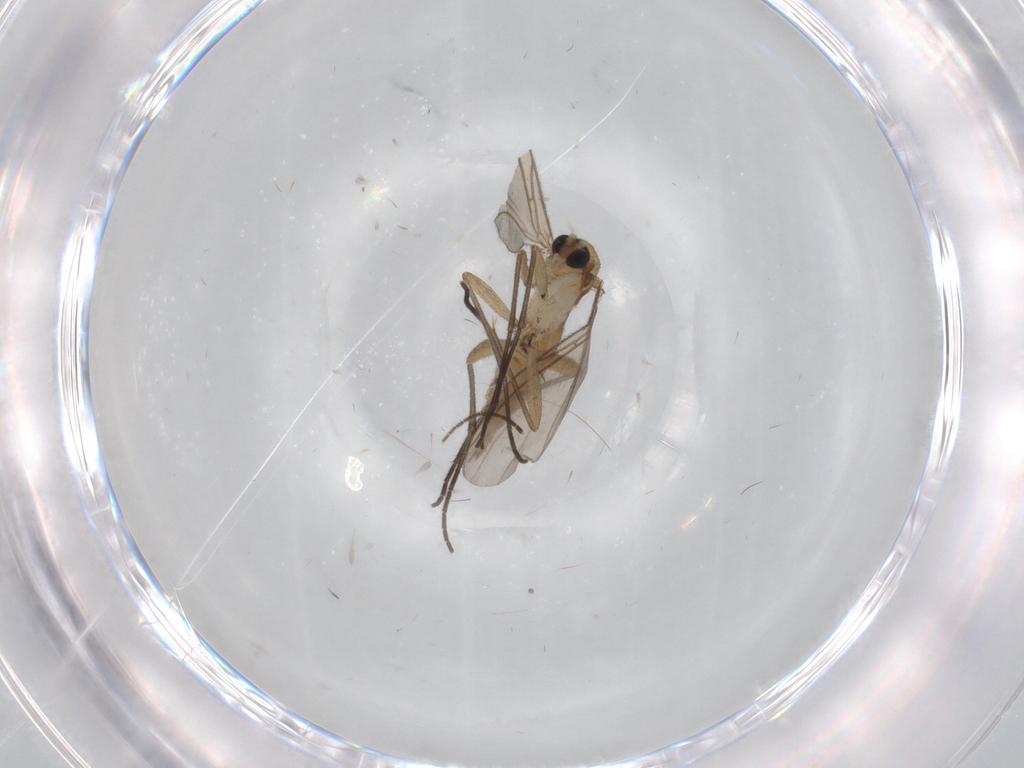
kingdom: Animalia
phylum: Arthropoda
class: Insecta
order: Diptera
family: Sciaridae
